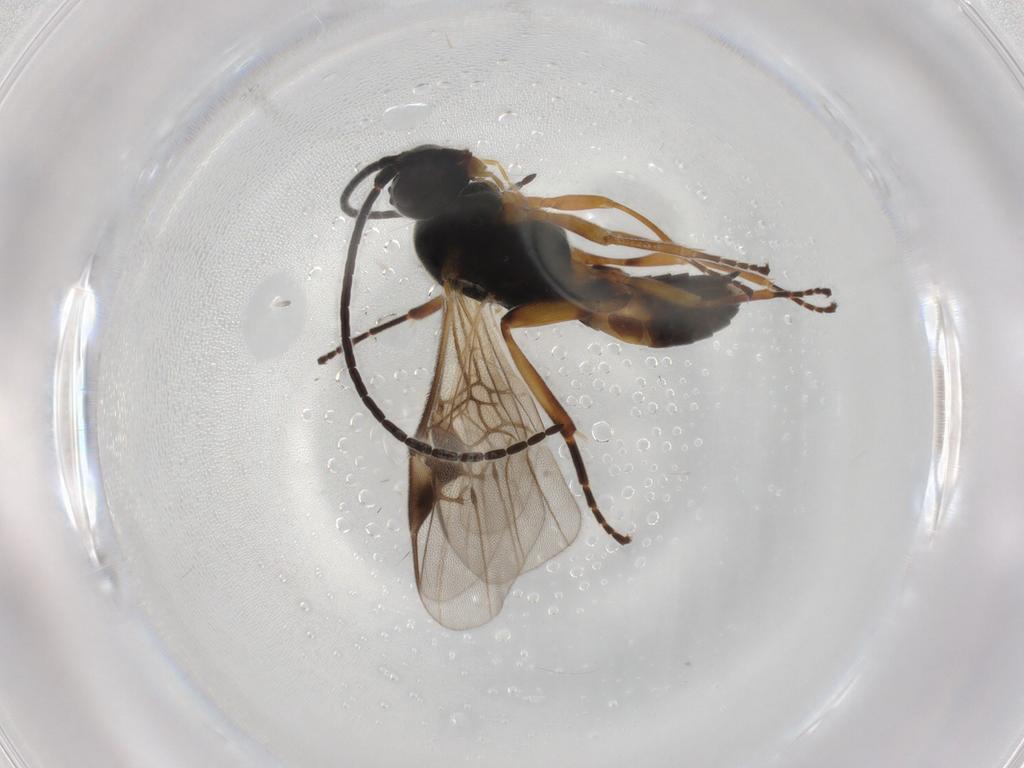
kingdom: Animalia
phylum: Arthropoda
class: Insecta
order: Hymenoptera
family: Braconidae
